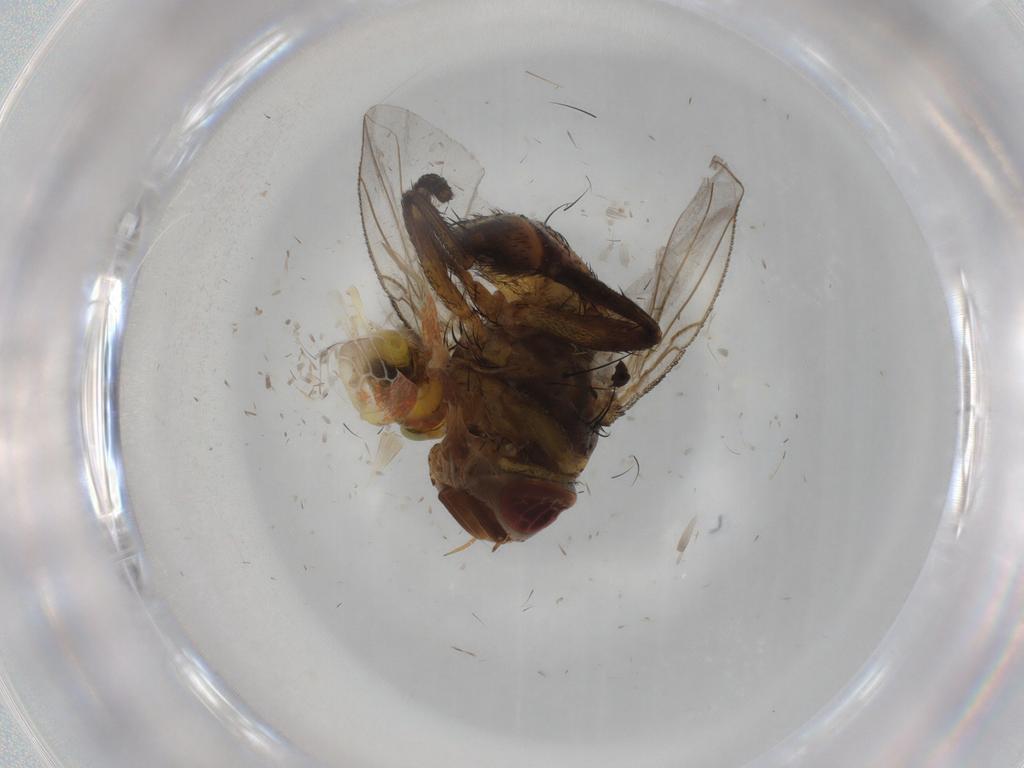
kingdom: Animalia
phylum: Arthropoda
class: Insecta
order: Diptera
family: Glossinidae
